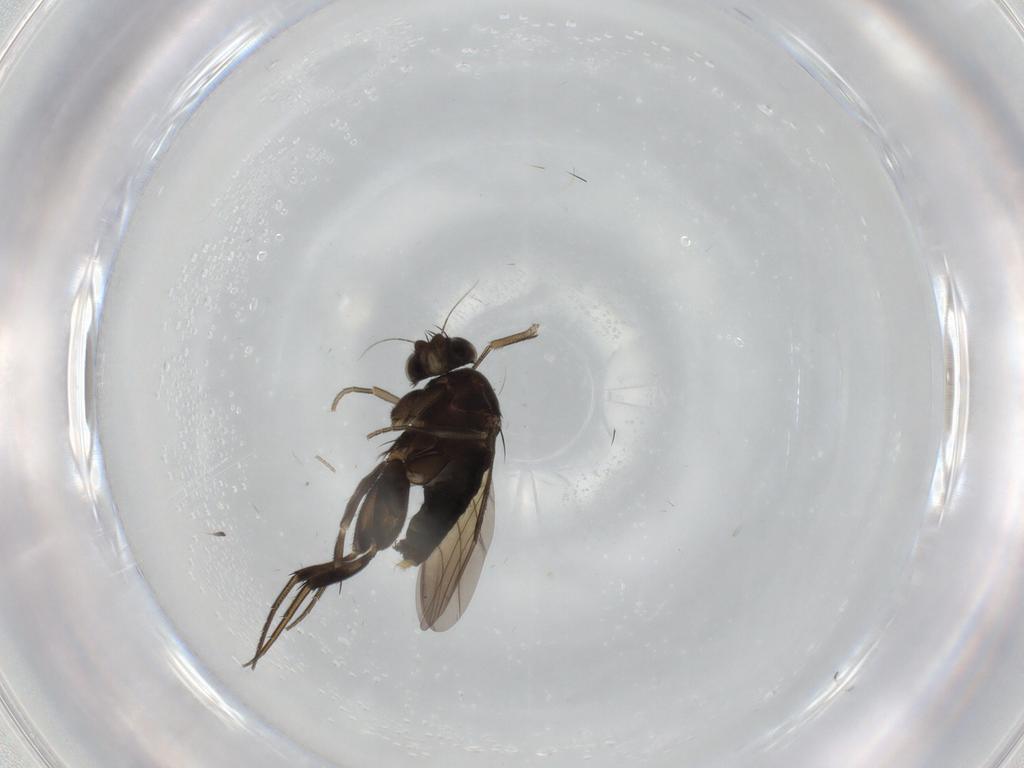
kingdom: Animalia
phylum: Arthropoda
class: Insecta
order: Diptera
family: Phoridae
